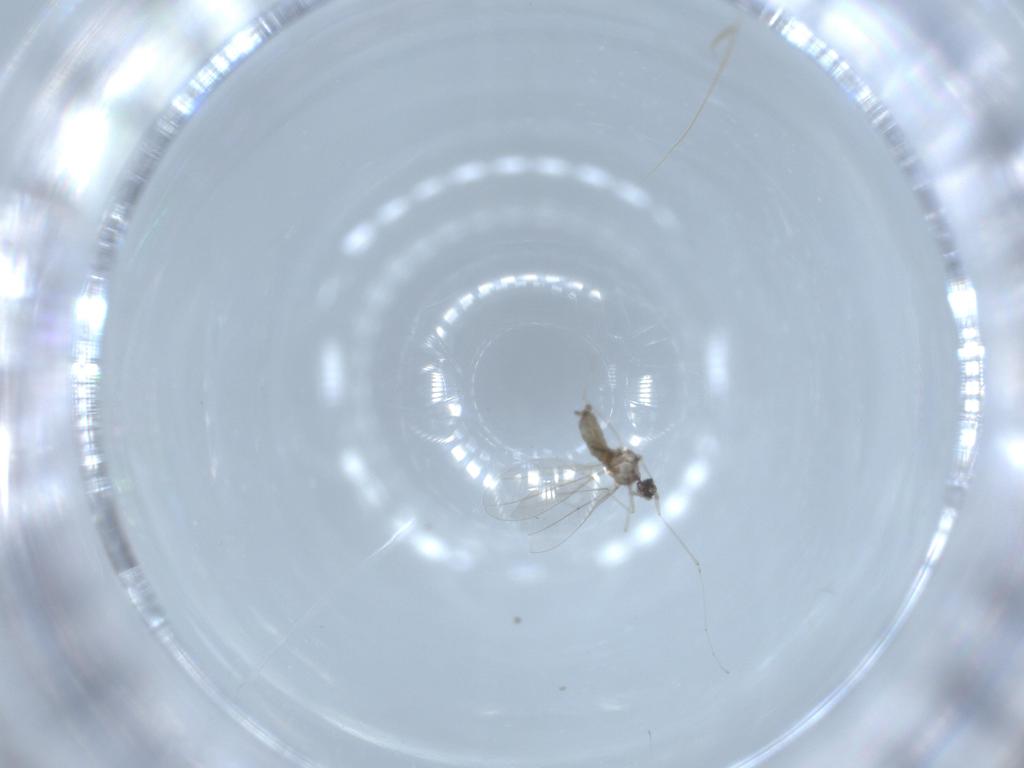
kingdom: Animalia
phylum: Arthropoda
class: Insecta
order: Diptera
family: Cecidomyiidae
